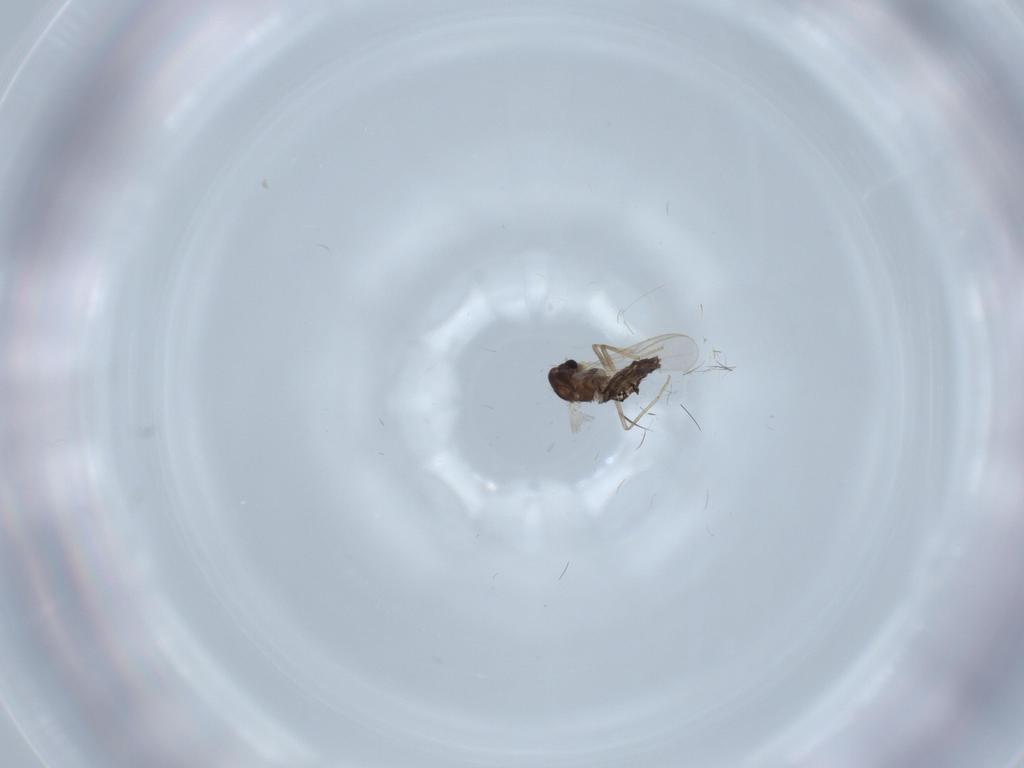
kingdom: Animalia
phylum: Arthropoda
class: Insecta
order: Diptera
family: Chironomidae
